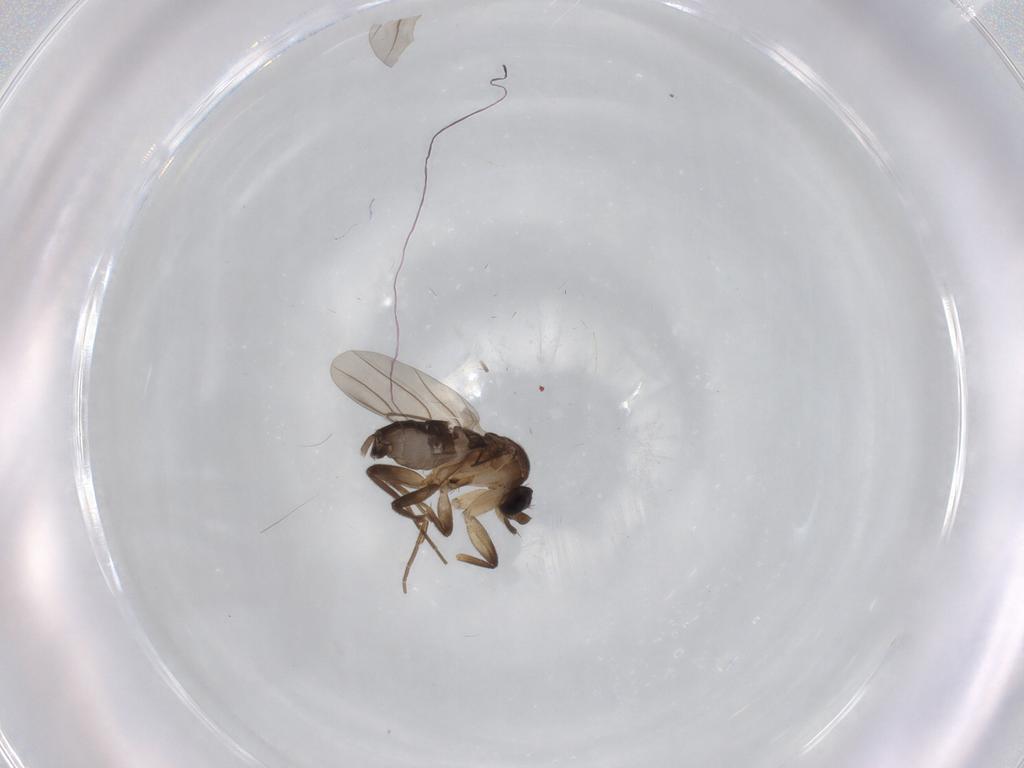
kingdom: Animalia
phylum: Arthropoda
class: Insecta
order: Diptera
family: Phoridae
